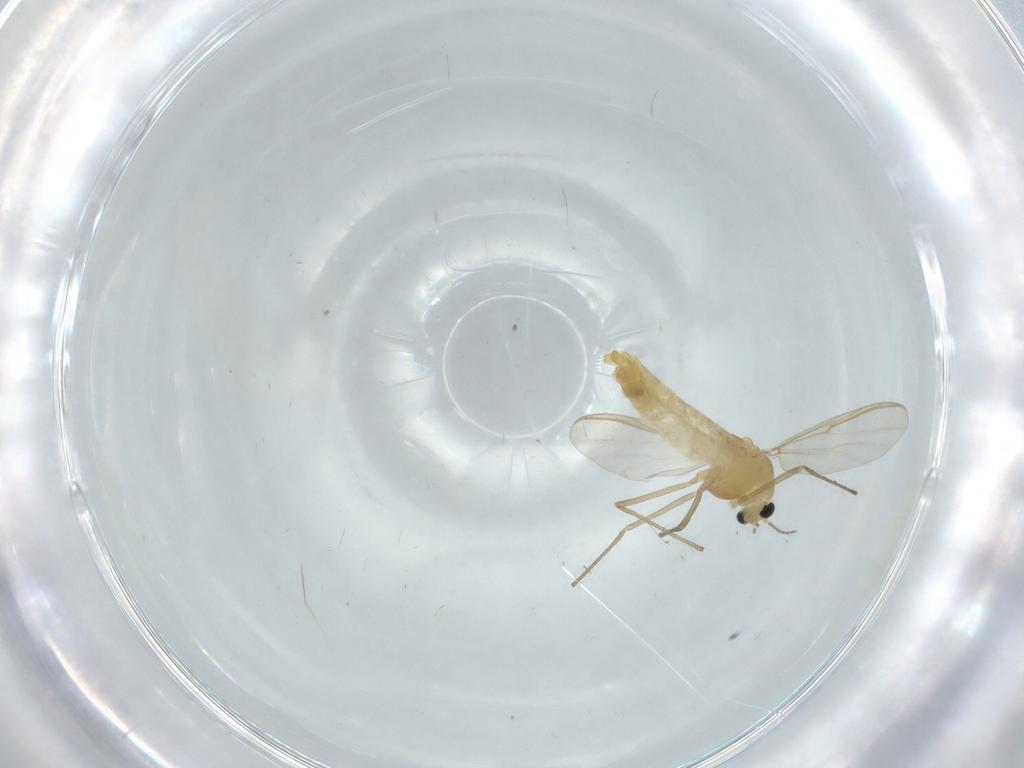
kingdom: Animalia
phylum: Arthropoda
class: Insecta
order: Diptera
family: Chironomidae
